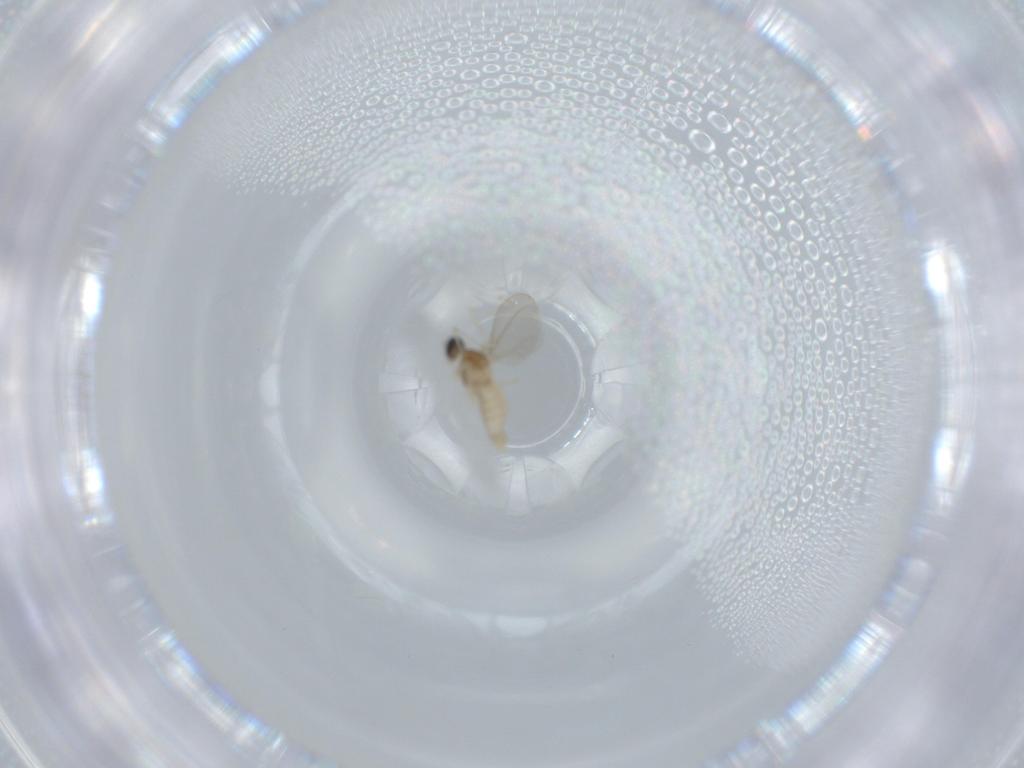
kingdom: Animalia
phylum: Arthropoda
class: Insecta
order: Diptera
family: Cecidomyiidae
